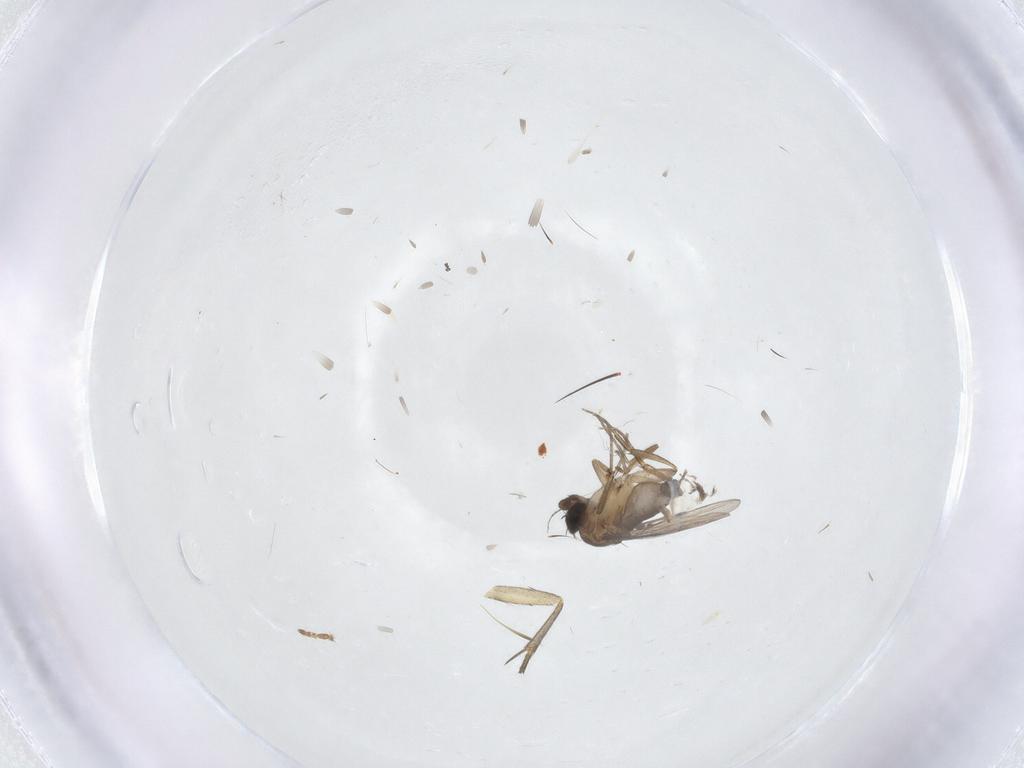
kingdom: Animalia
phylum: Arthropoda
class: Insecta
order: Diptera
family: Phoridae
